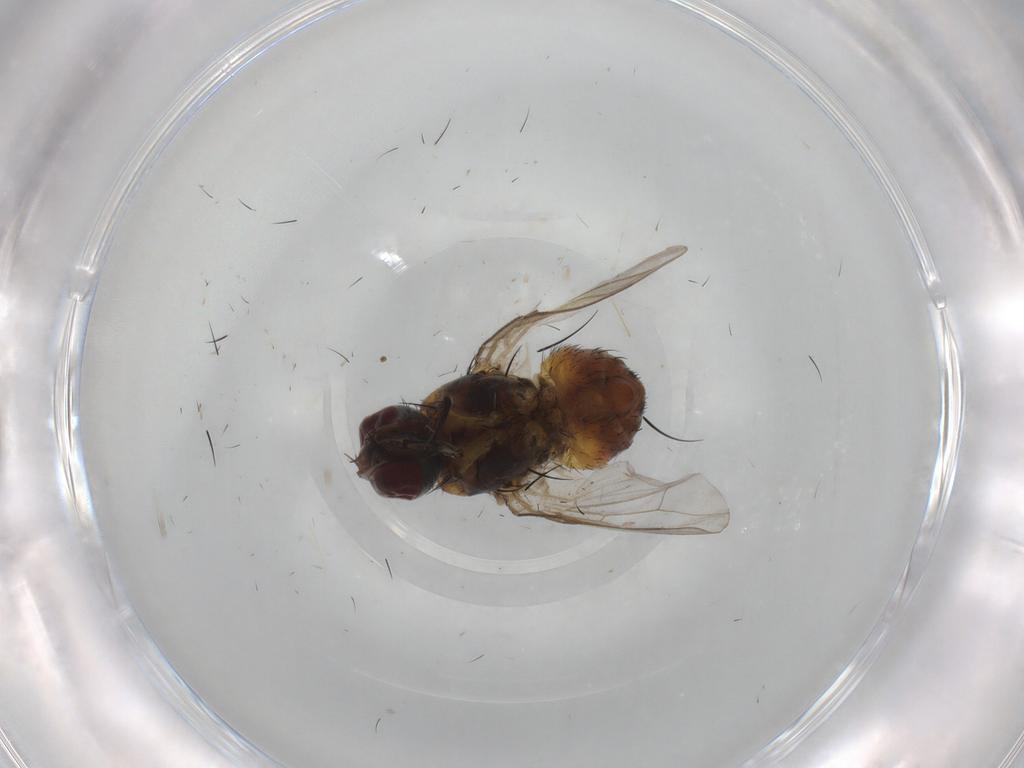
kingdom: Animalia
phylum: Arthropoda
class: Insecta
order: Diptera
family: Muscidae
